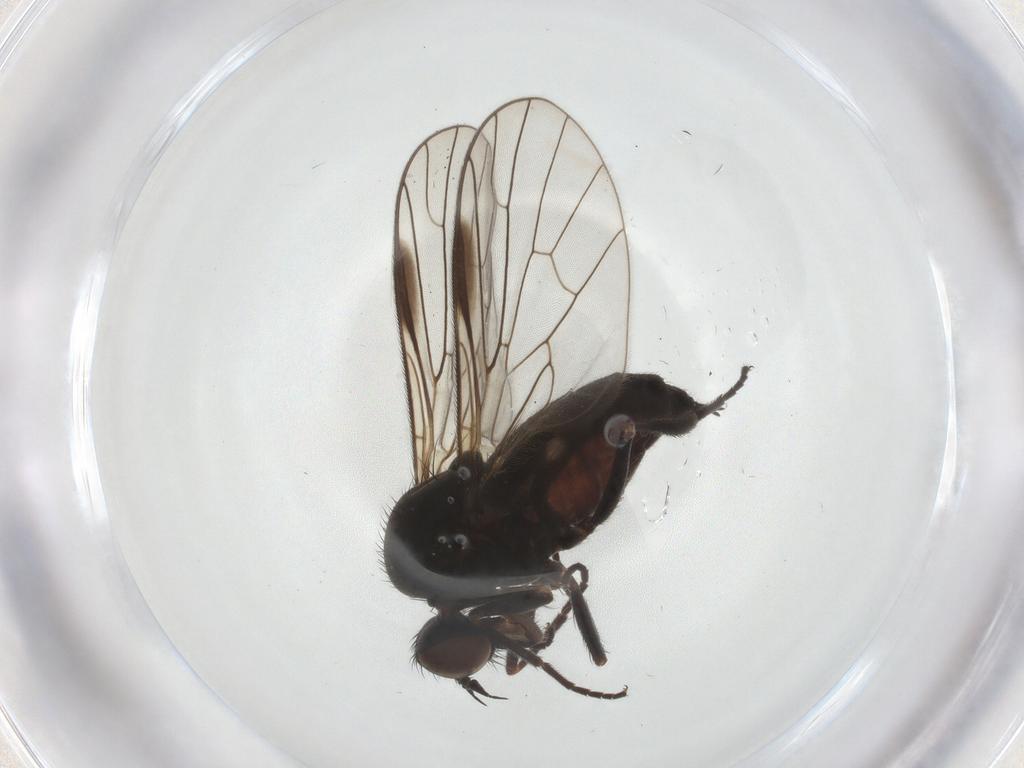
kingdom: Animalia
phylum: Arthropoda
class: Insecta
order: Diptera
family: Empididae
